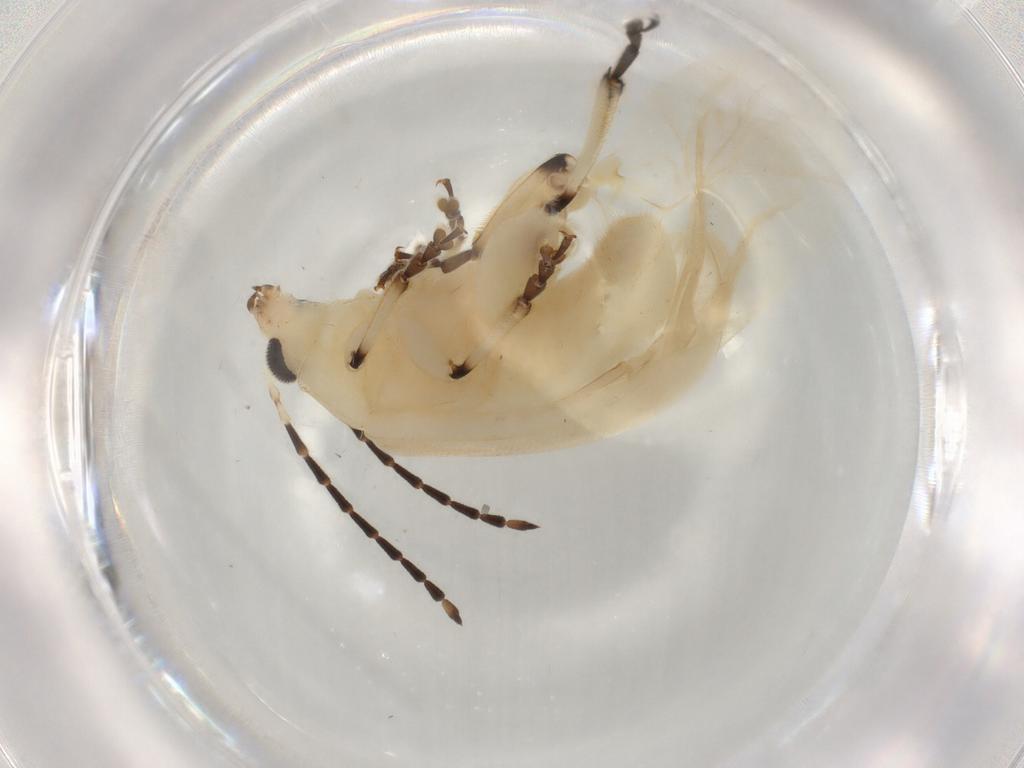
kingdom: Animalia
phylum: Arthropoda
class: Insecta
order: Coleoptera
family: Chrysomelidae
